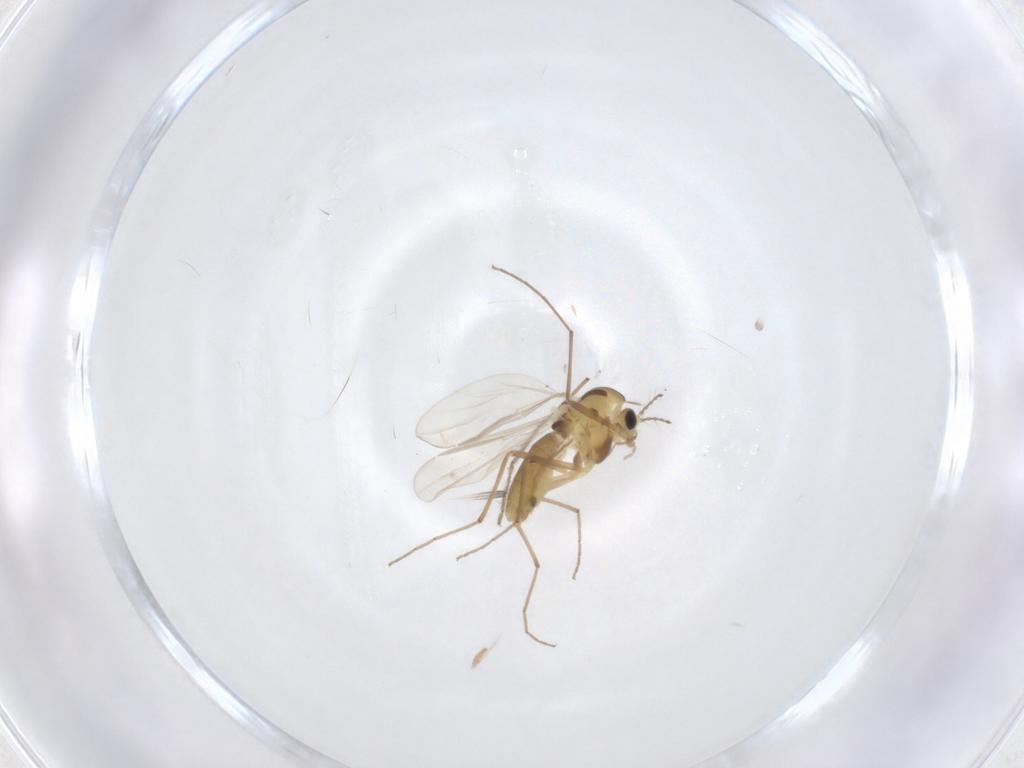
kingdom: Animalia
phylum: Arthropoda
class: Insecta
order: Diptera
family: Chironomidae
